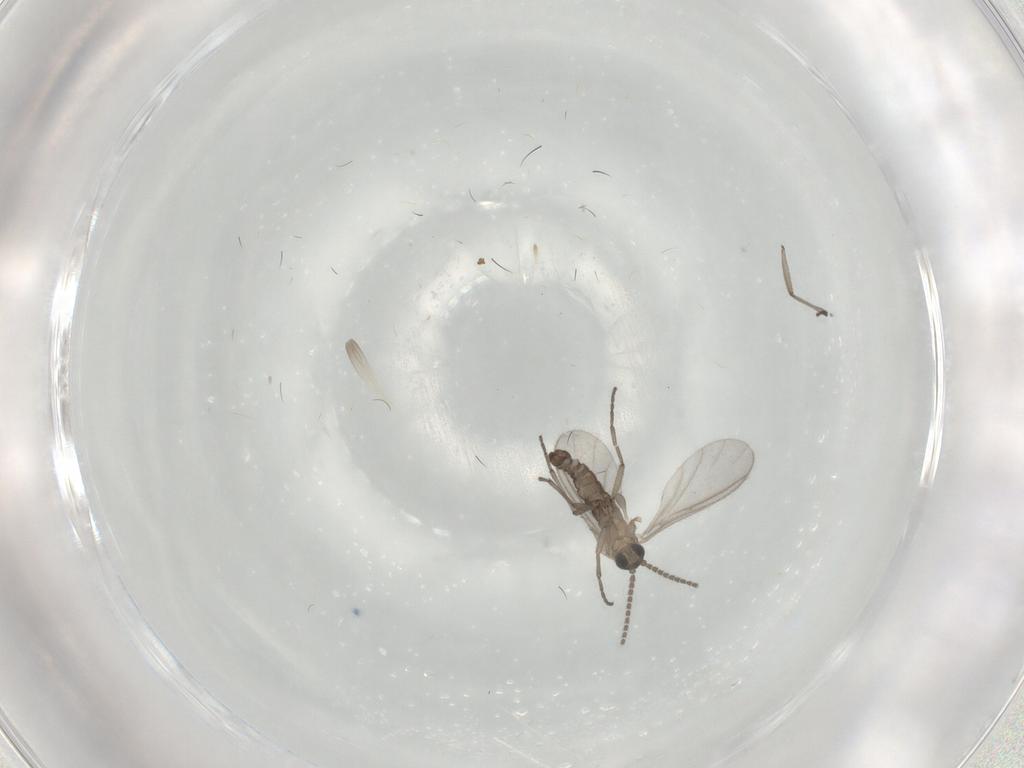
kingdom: Animalia
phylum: Arthropoda
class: Insecta
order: Diptera
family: Sciaridae
